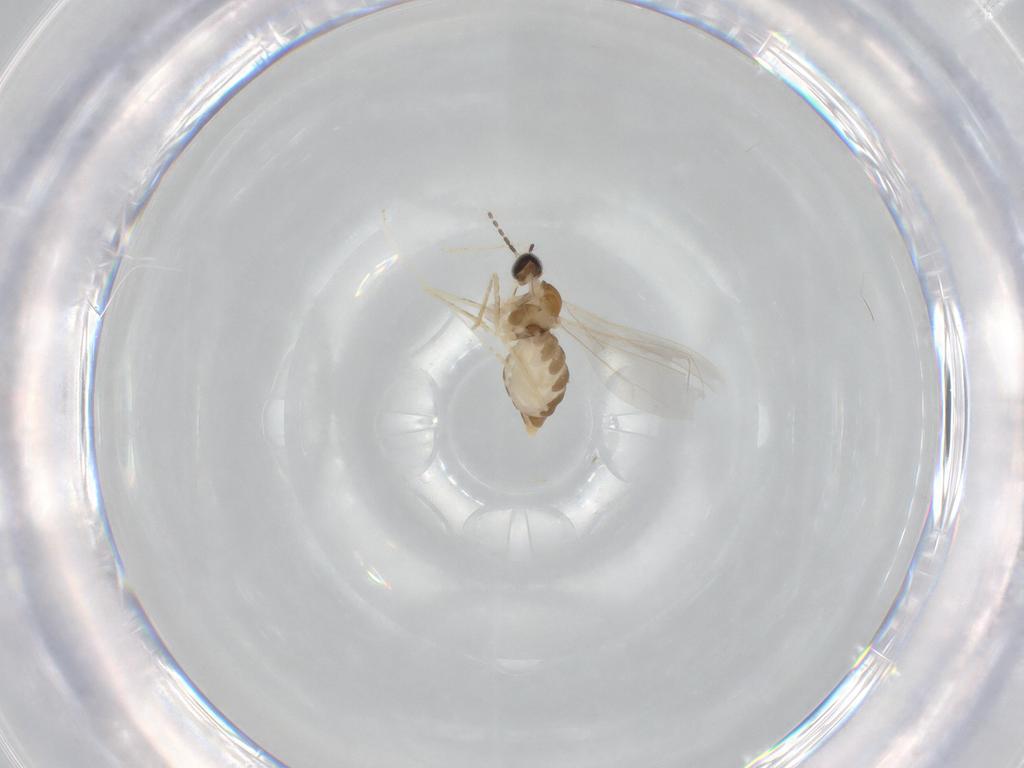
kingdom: Animalia
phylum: Arthropoda
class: Insecta
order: Diptera
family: Cecidomyiidae
